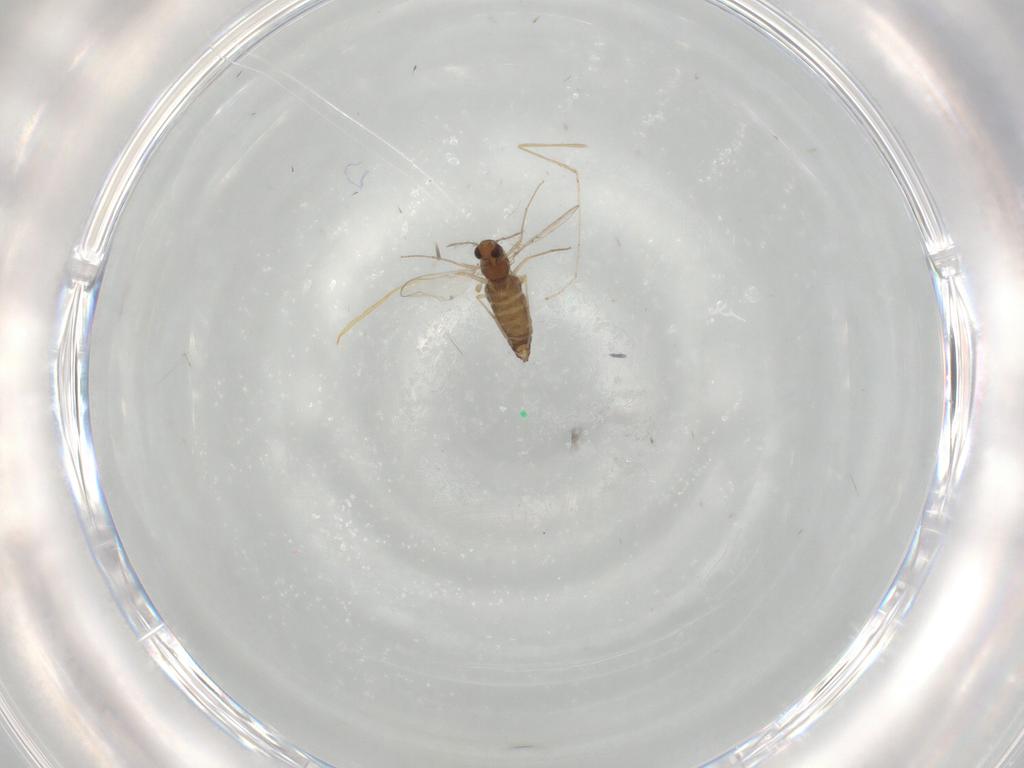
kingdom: Animalia
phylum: Arthropoda
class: Insecta
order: Diptera
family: Chironomidae
